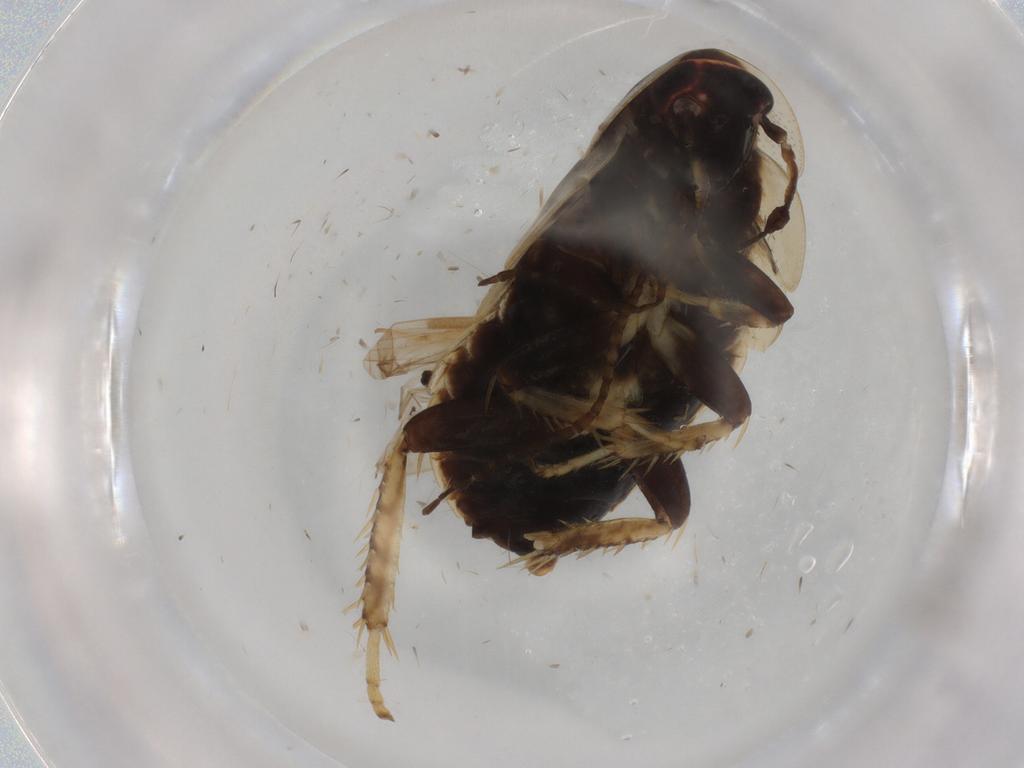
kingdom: Animalia
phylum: Arthropoda
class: Insecta
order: Blattodea
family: Ectobiidae
